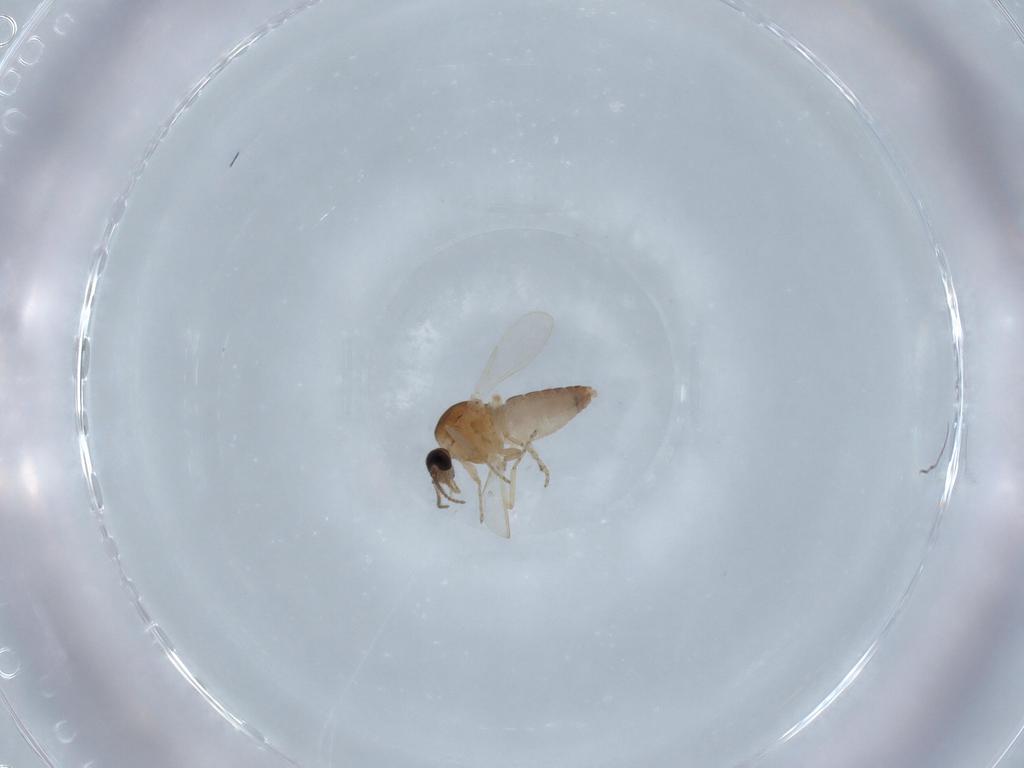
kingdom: Animalia
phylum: Arthropoda
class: Insecta
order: Diptera
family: Ceratopogonidae
